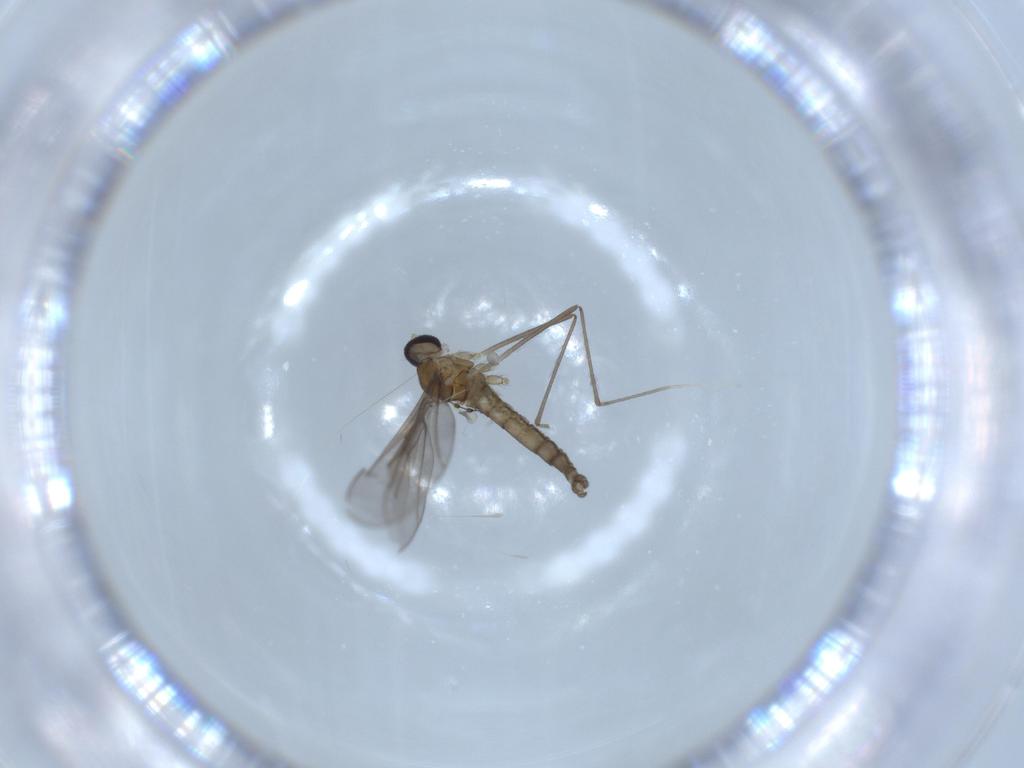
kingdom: Animalia
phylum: Arthropoda
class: Insecta
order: Diptera
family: Cecidomyiidae
